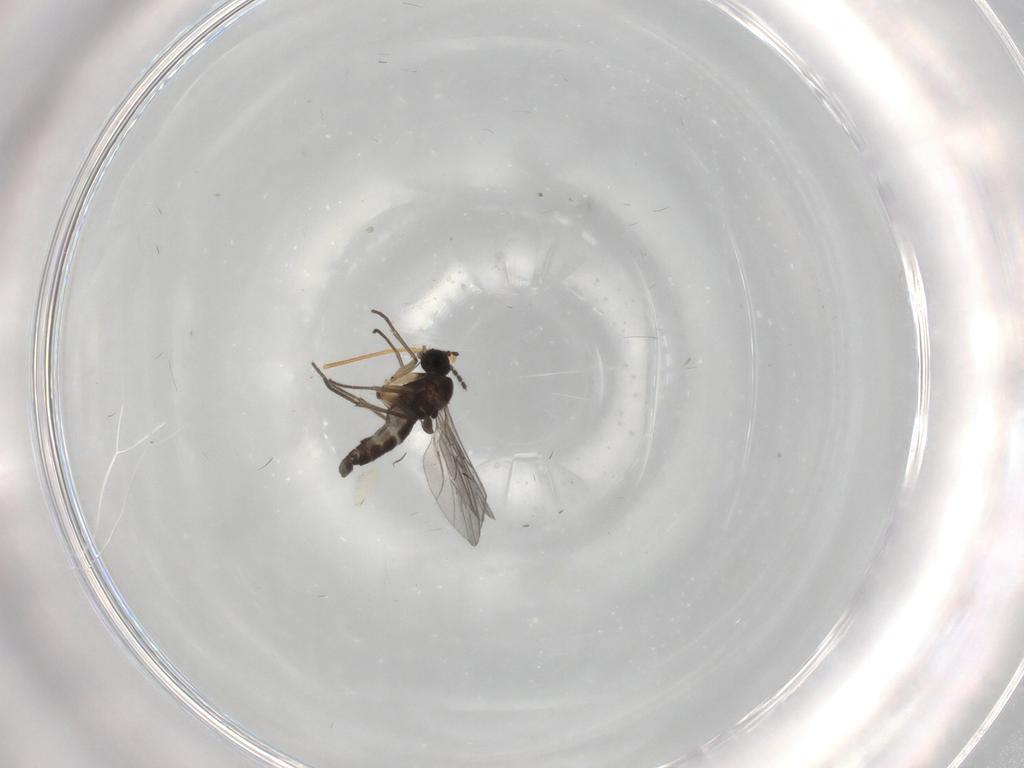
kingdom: Animalia
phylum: Arthropoda
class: Insecta
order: Diptera
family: Sciaridae
